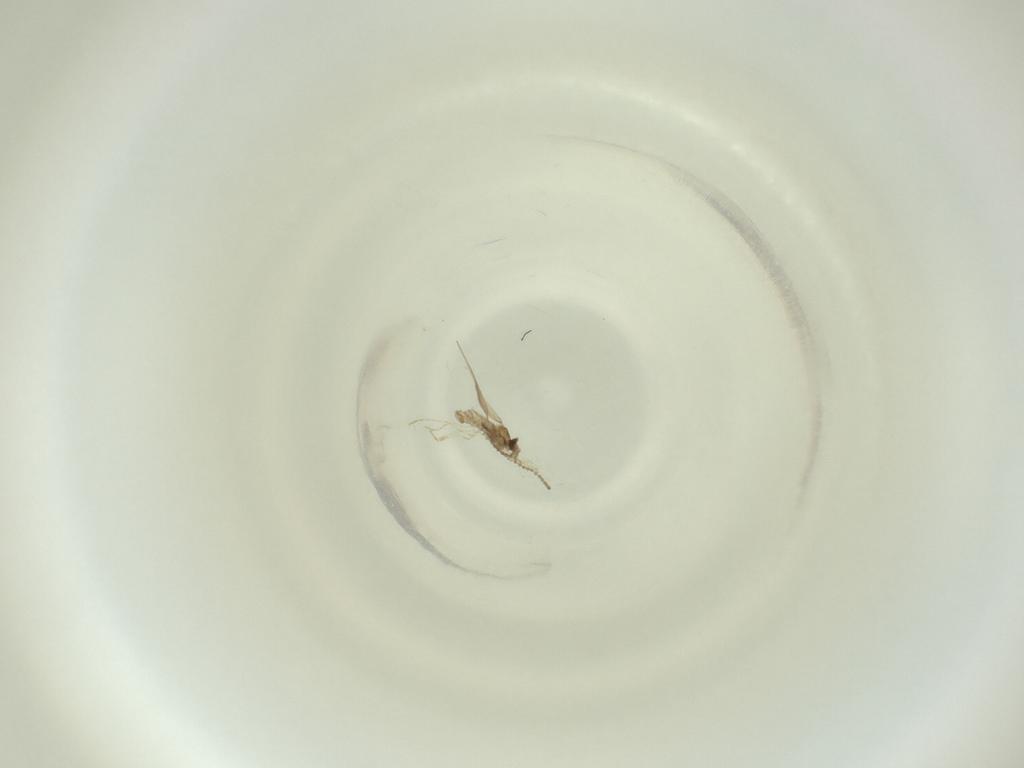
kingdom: Animalia
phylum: Arthropoda
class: Insecta
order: Diptera
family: Cecidomyiidae
